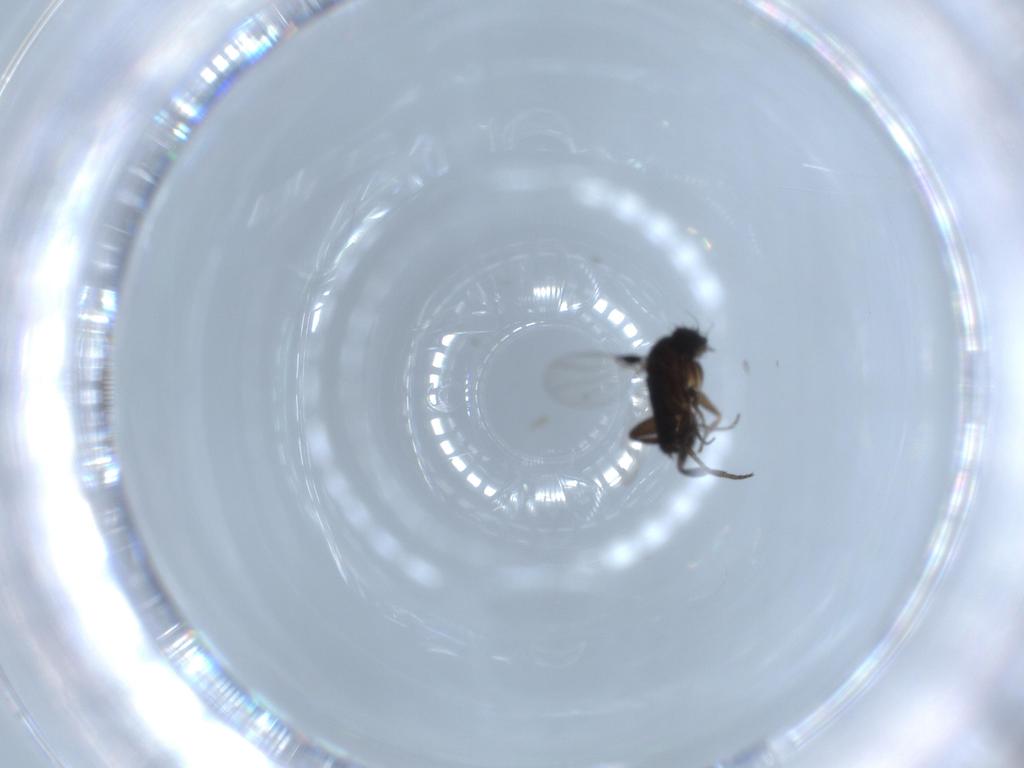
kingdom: Animalia
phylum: Arthropoda
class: Insecta
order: Diptera
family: Phoridae
